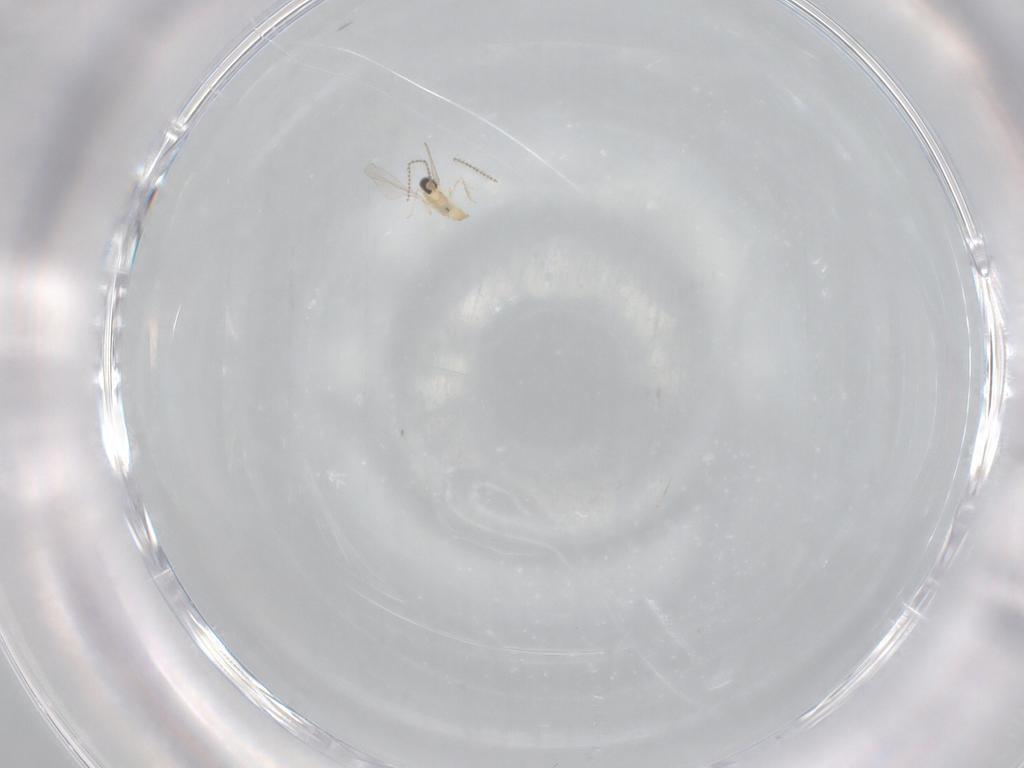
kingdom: Animalia
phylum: Arthropoda
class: Insecta
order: Diptera
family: Cecidomyiidae
